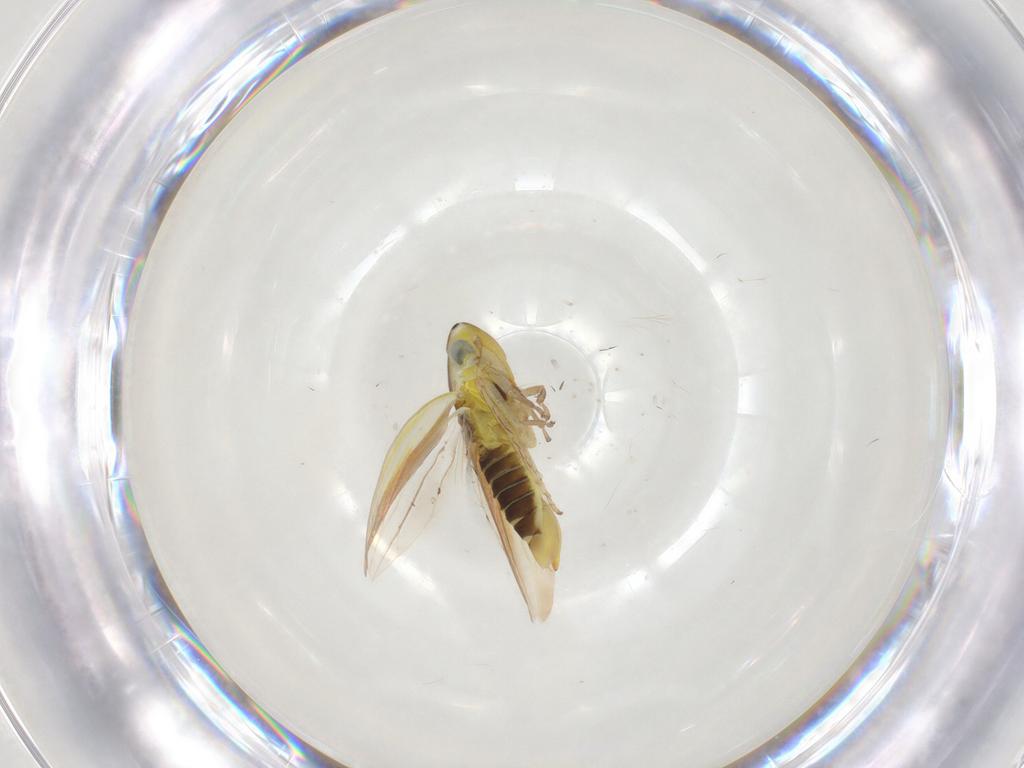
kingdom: Animalia
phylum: Arthropoda
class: Insecta
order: Hemiptera
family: Cicadellidae
